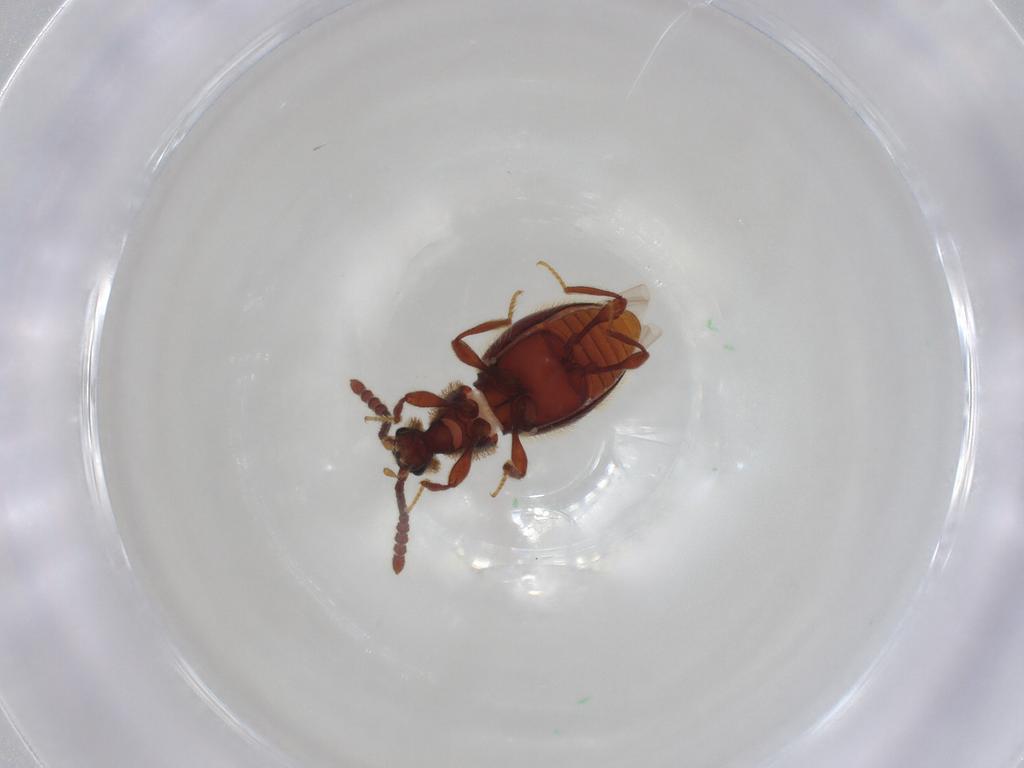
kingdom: Animalia
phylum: Arthropoda
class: Insecta
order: Coleoptera
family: Staphylinidae
